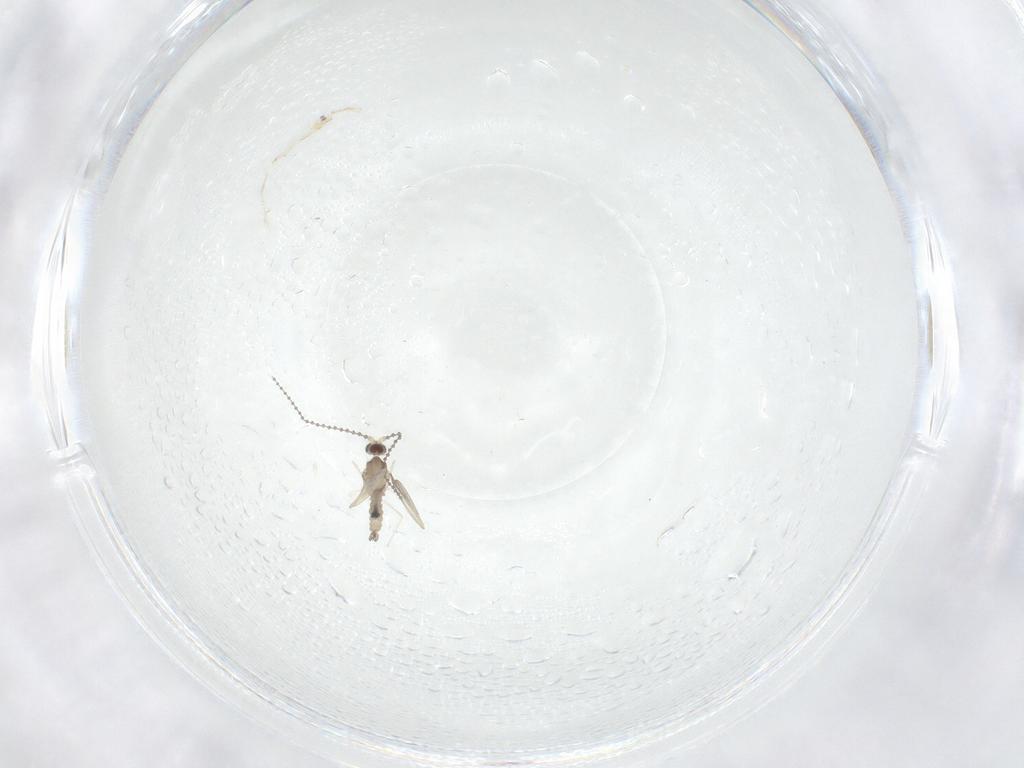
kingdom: Animalia
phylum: Arthropoda
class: Insecta
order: Diptera
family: Cecidomyiidae
